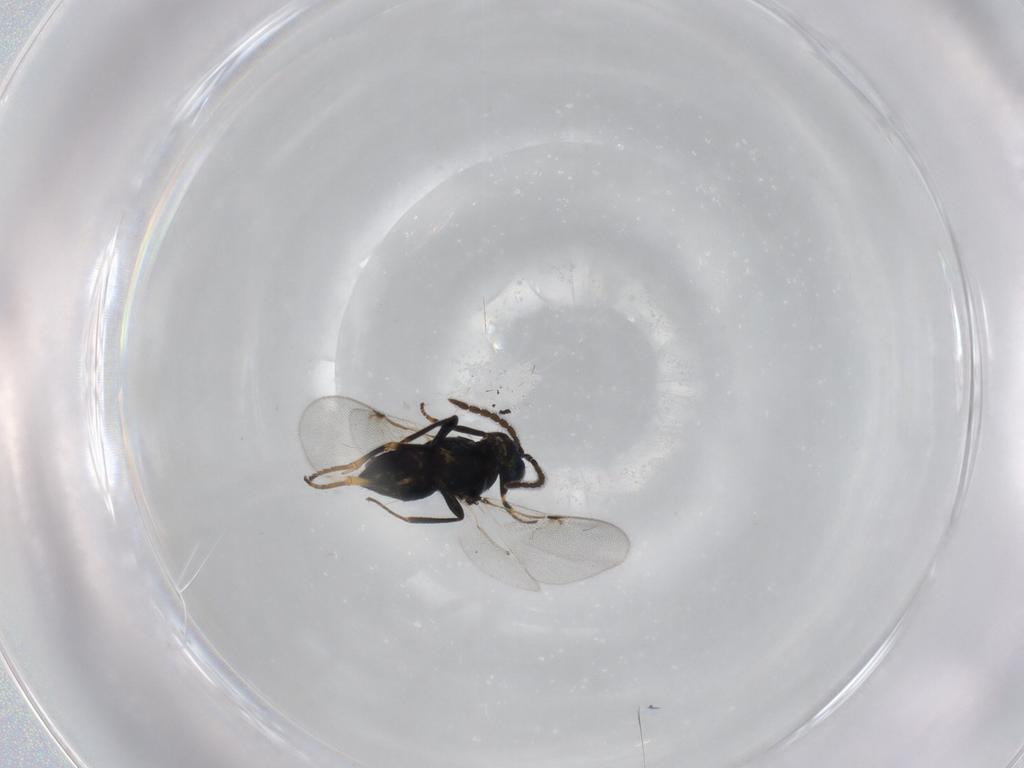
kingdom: Animalia
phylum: Arthropoda
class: Insecta
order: Hymenoptera
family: Encyrtidae
